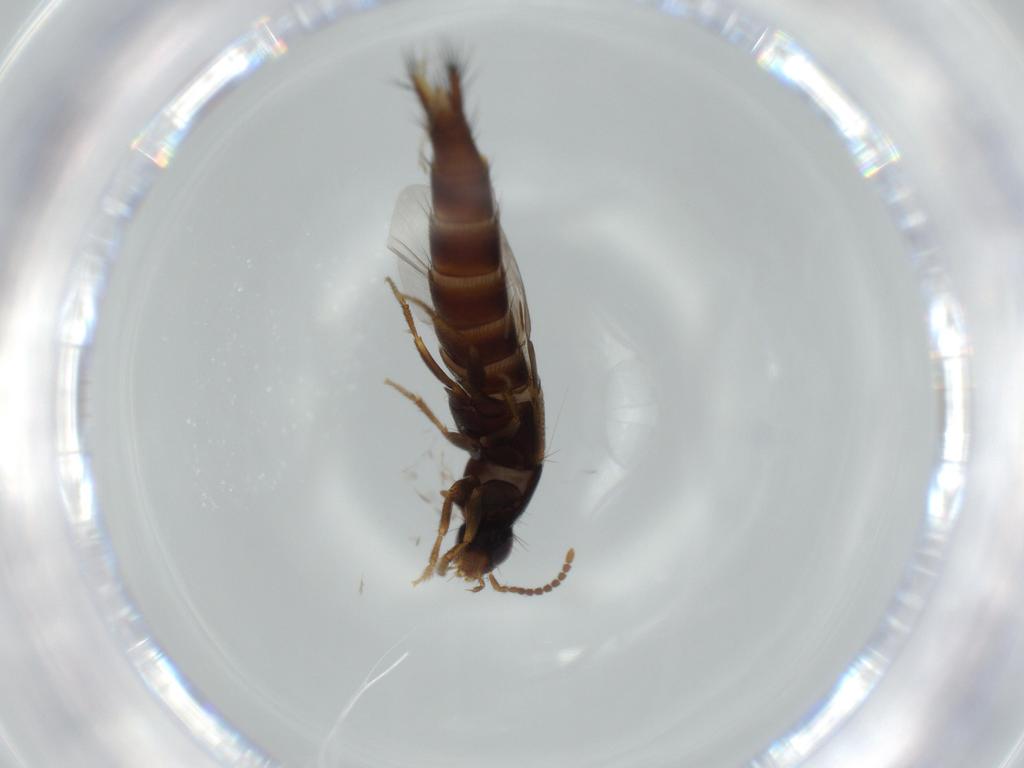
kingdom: Animalia
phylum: Arthropoda
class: Insecta
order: Coleoptera
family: Staphylinidae
